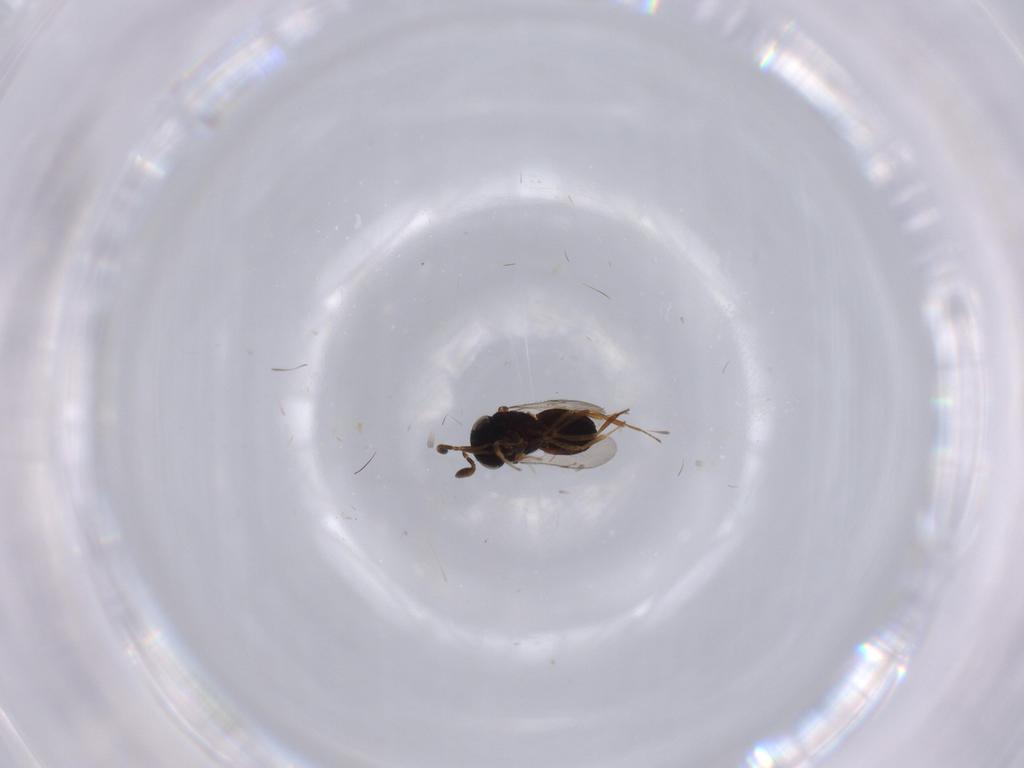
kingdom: Animalia
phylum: Arthropoda
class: Insecta
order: Hymenoptera
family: Scelionidae
